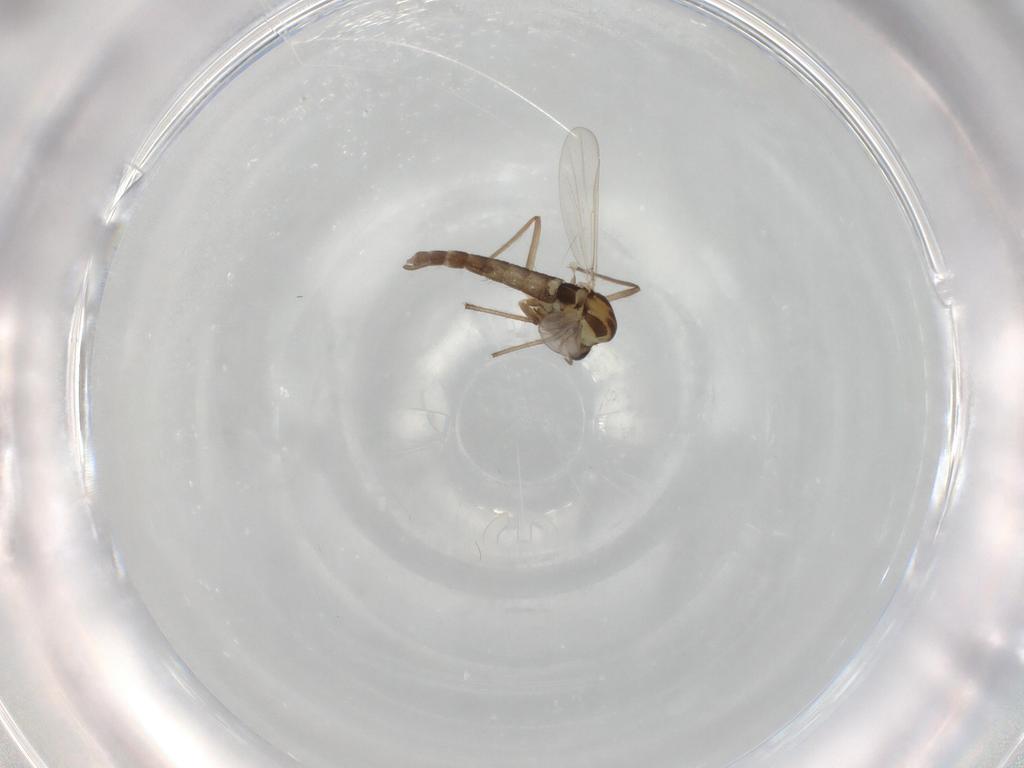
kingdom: Animalia
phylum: Arthropoda
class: Insecta
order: Diptera
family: Chironomidae
